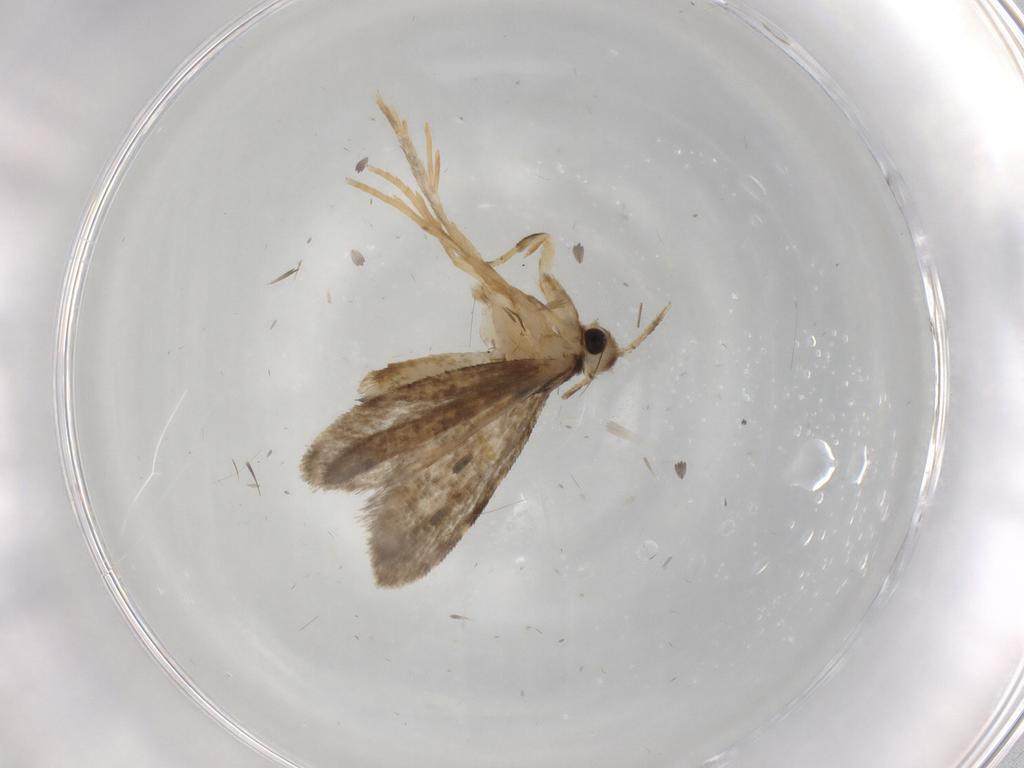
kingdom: Animalia
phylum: Arthropoda
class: Insecta
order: Lepidoptera
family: Psychidae
